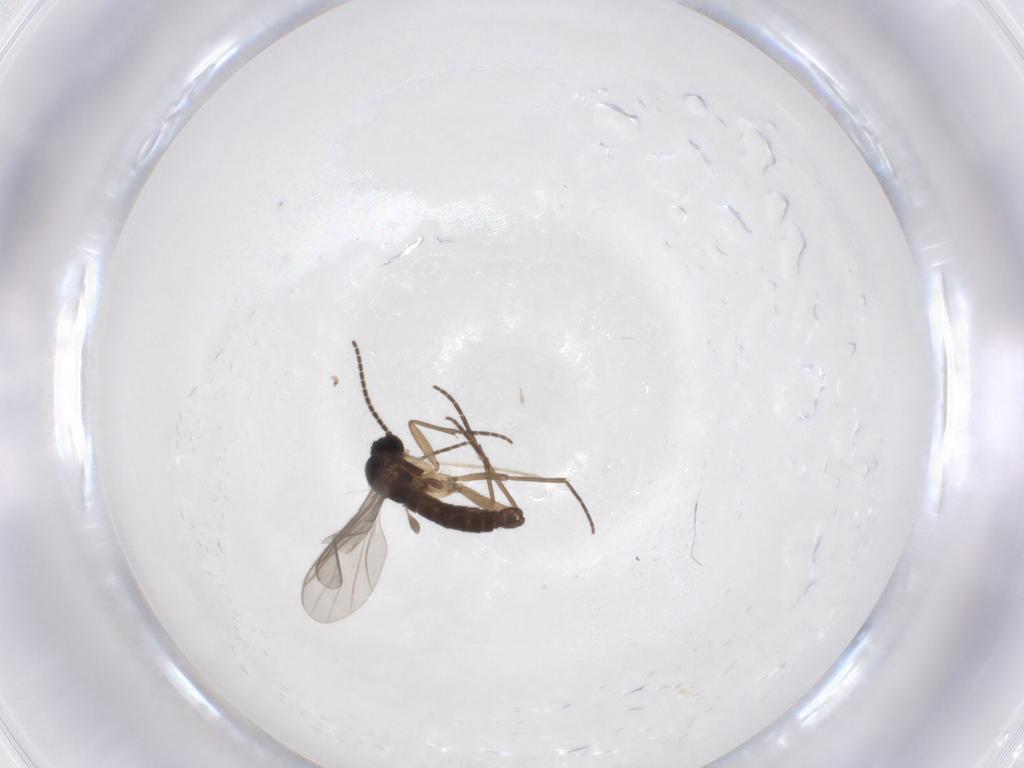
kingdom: Animalia
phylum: Arthropoda
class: Insecta
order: Diptera
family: Sciaridae
